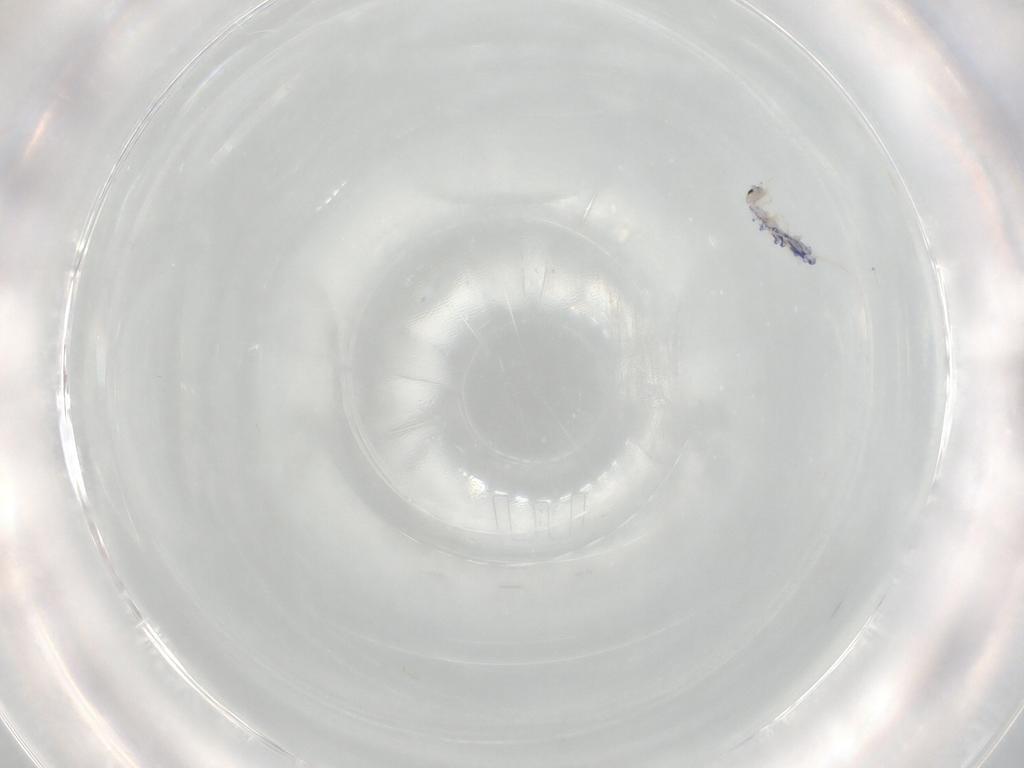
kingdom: Animalia
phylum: Arthropoda
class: Collembola
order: Entomobryomorpha
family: Entomobryidae
